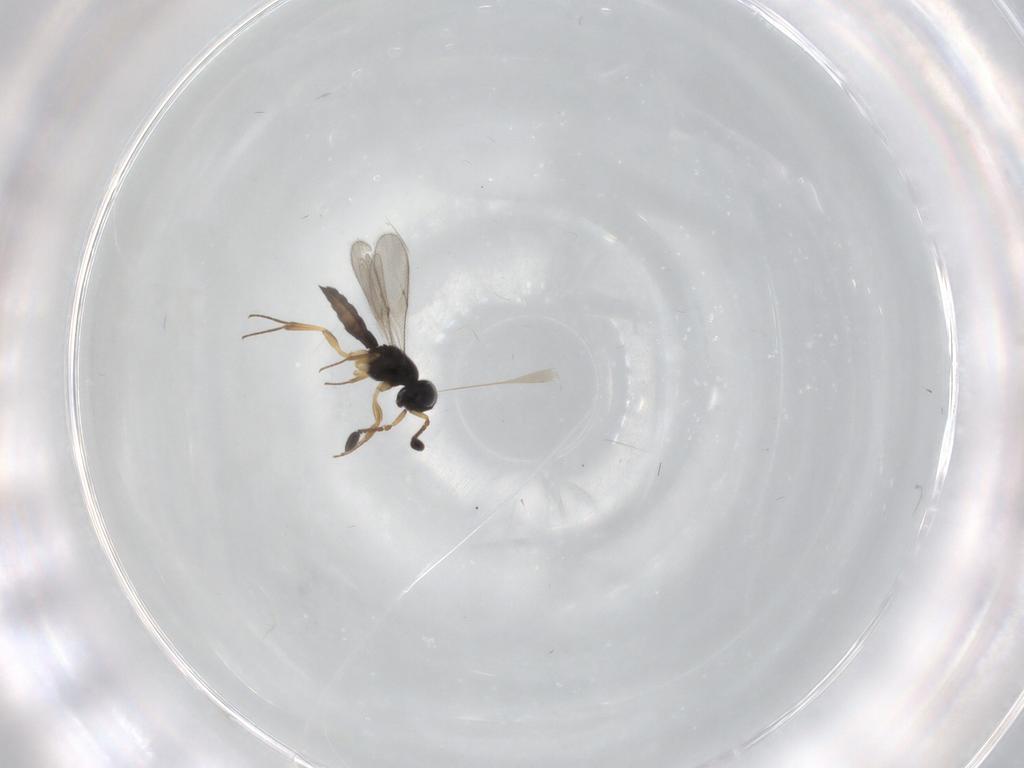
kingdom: Animalia
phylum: Arthropoda
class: Insecta
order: Hymenoptera
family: Scelionidae
